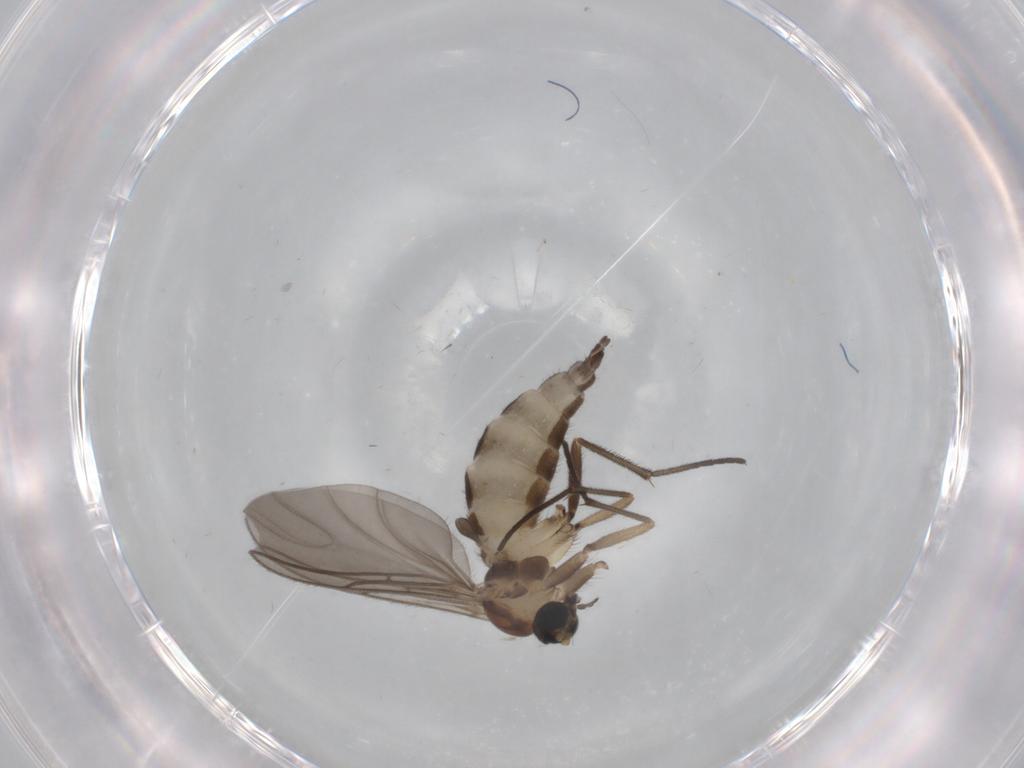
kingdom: Animalia
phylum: Arthropoda
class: Insecta
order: Diptera
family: Sciaridae
